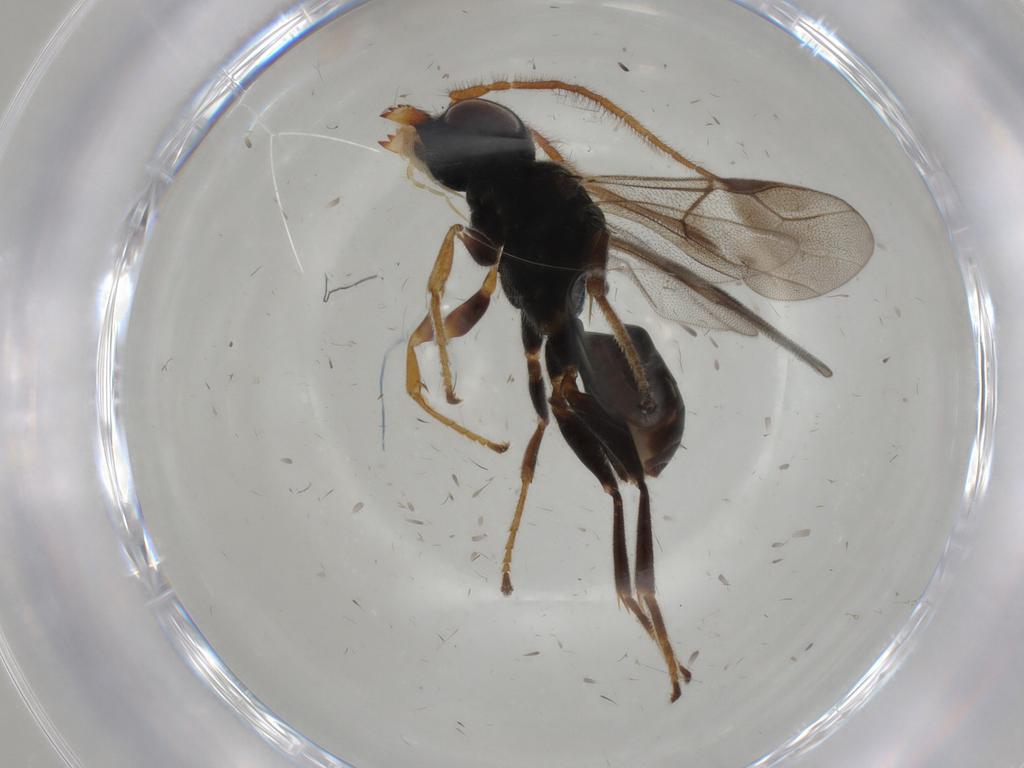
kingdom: Animalia
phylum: Arthropoda
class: Insecta
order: Hymenoptera
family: Dryinidae
